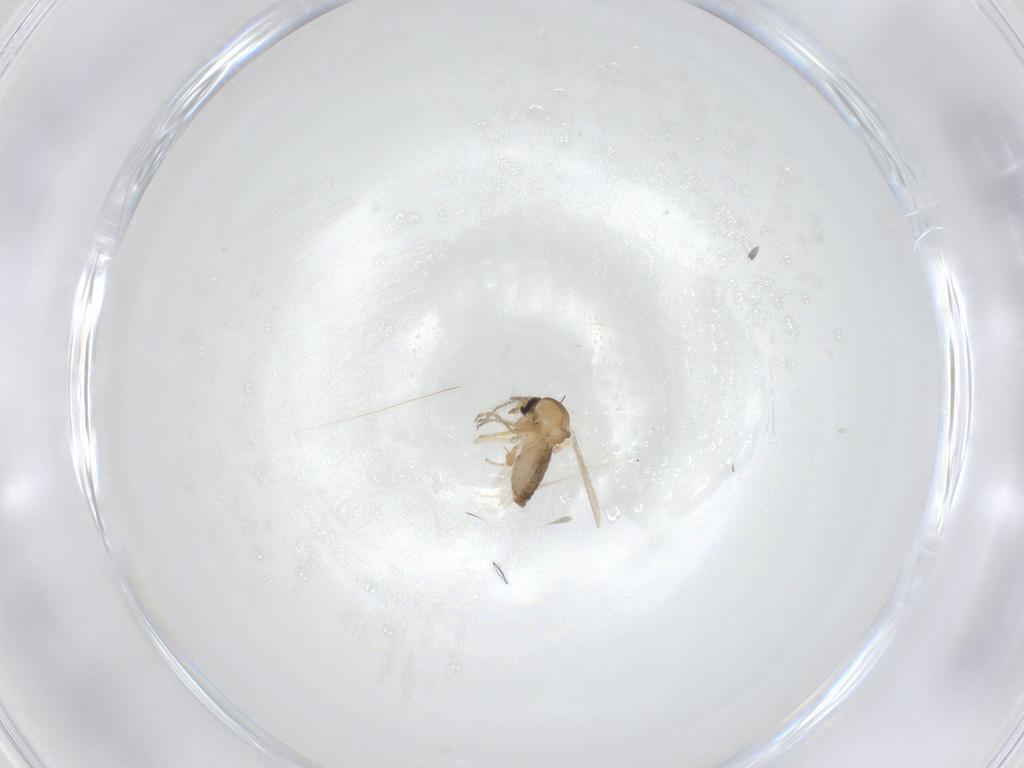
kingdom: Animalia
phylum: Arthropoda
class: Insecta
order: Diptera
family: Ceratopogonidae
